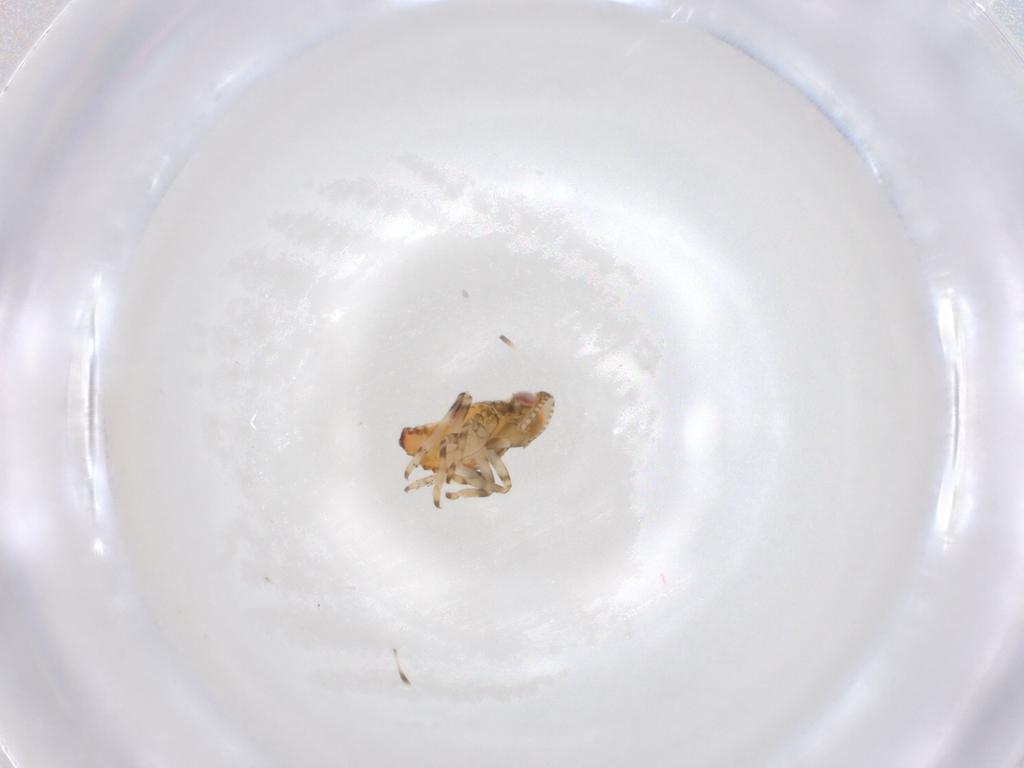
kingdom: Animalia
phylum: Arthropoda
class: Insecta
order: Hemiptera
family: Tropiduchidae
